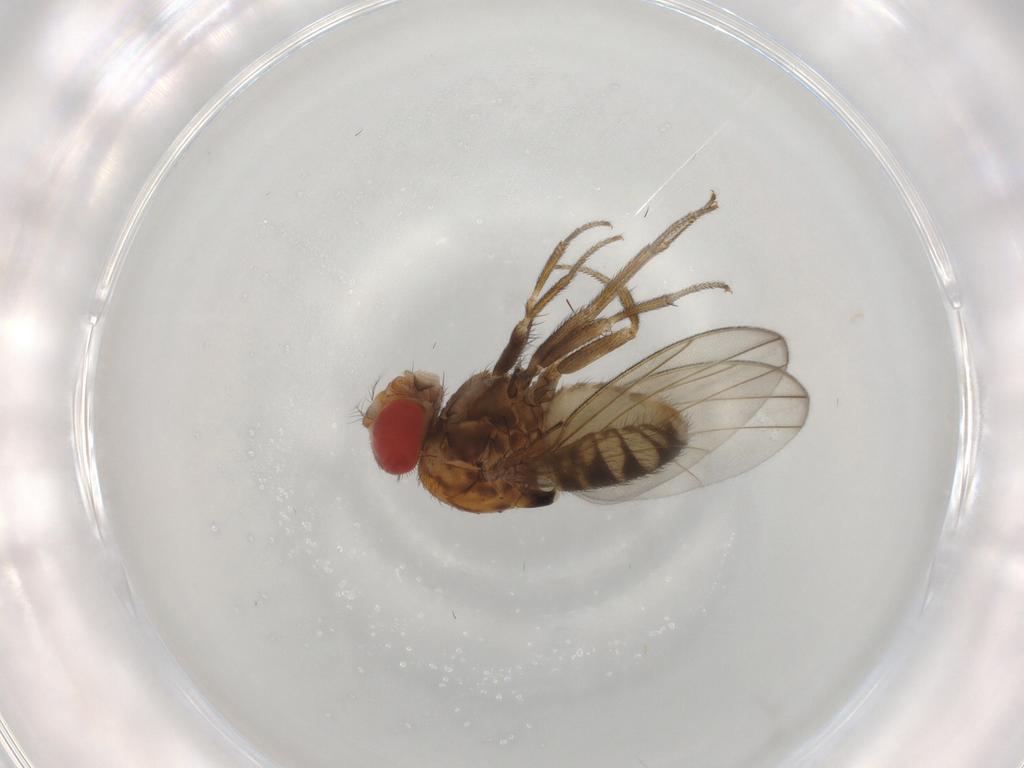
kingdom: Animalia
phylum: Arthropoda
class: Insecta
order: Diptera
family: Drosophilidae
